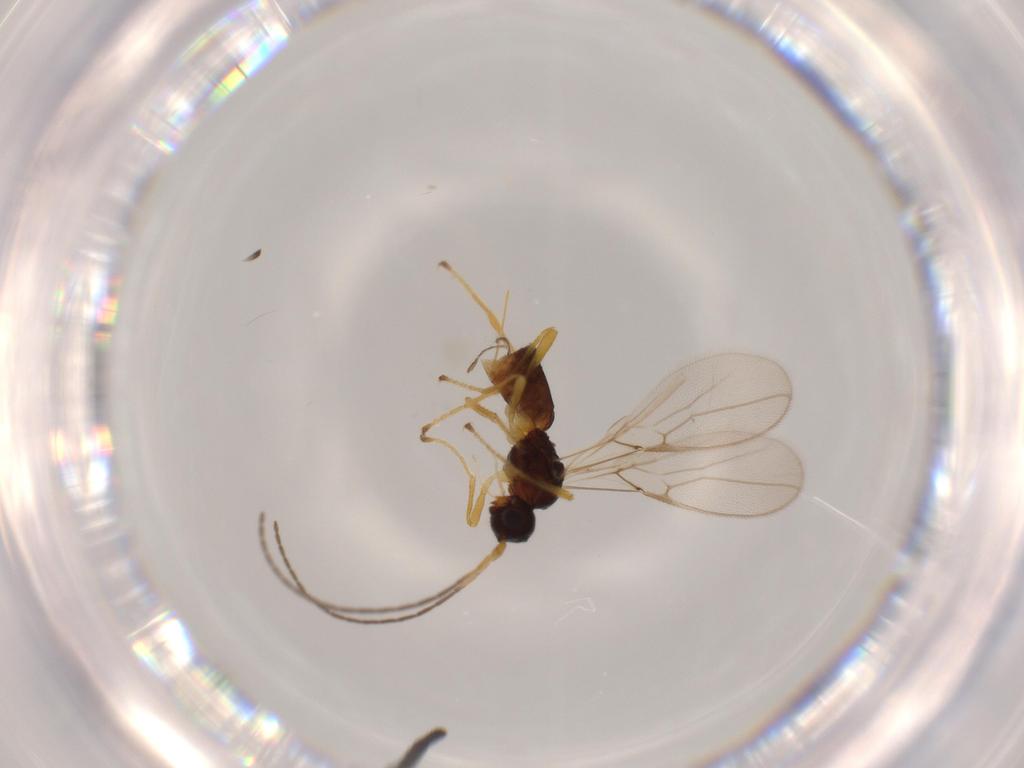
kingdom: Animalia
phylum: Arthropoda
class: Insecta
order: Hymenoptera
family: Braconidae
